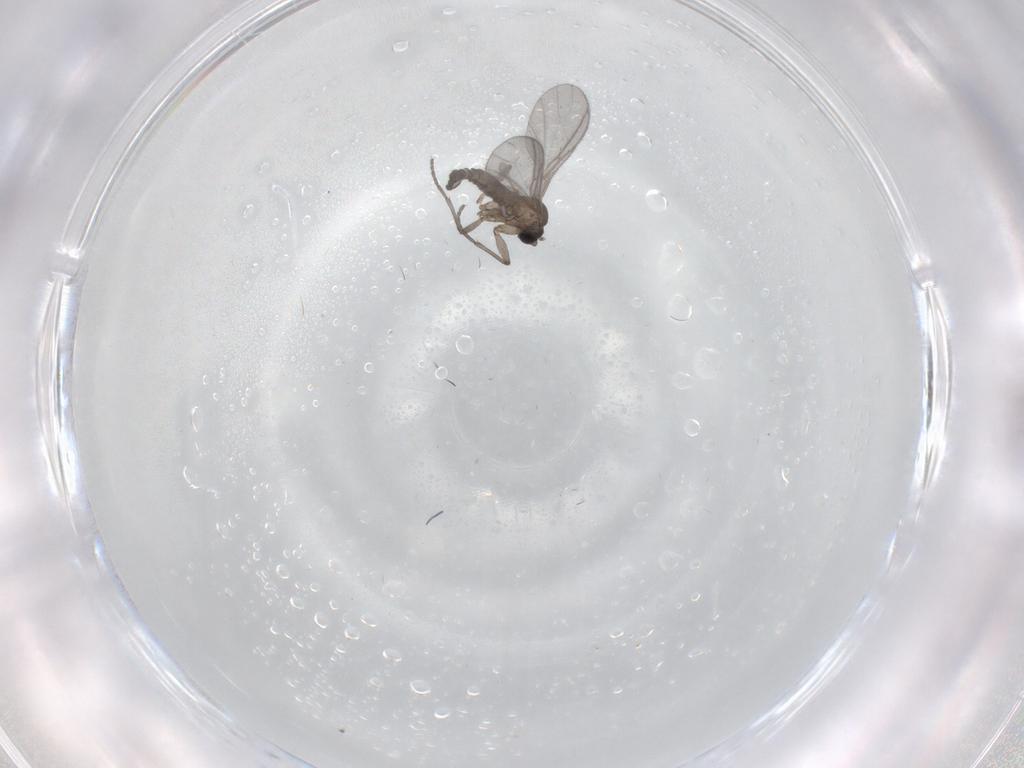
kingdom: Animalia
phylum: Arthropoda
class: Insecta
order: Diptera
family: Sciaridae
